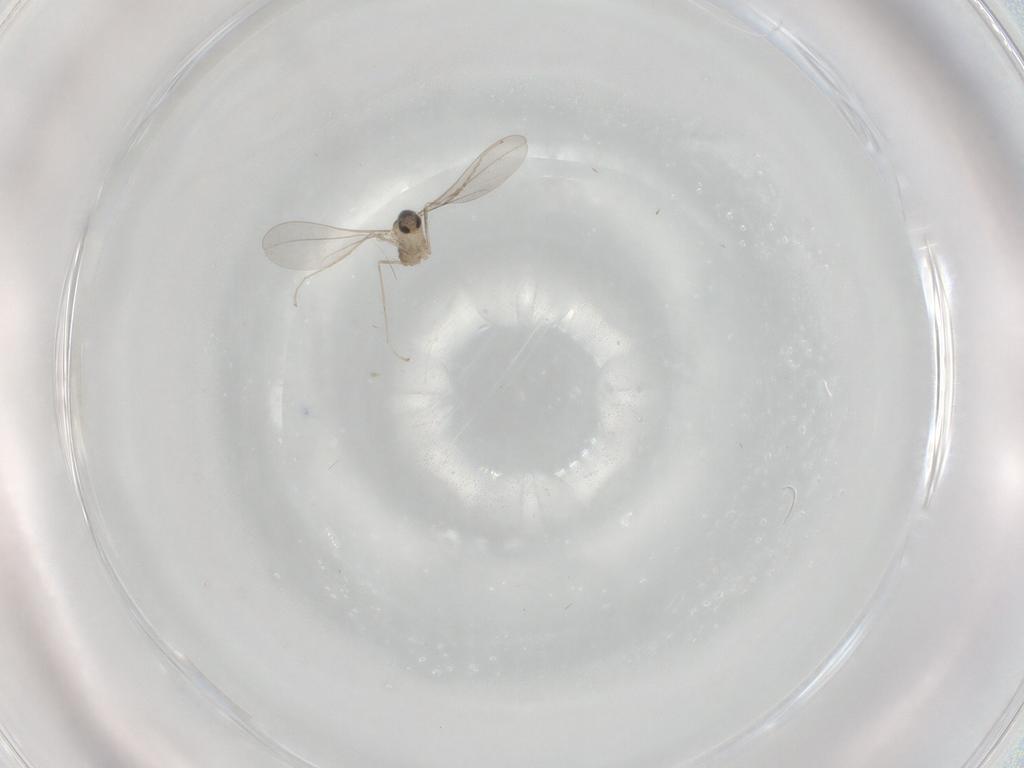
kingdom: Animalia
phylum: Arthropoda
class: Insecta
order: Diptera
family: Cecidomyiidae
